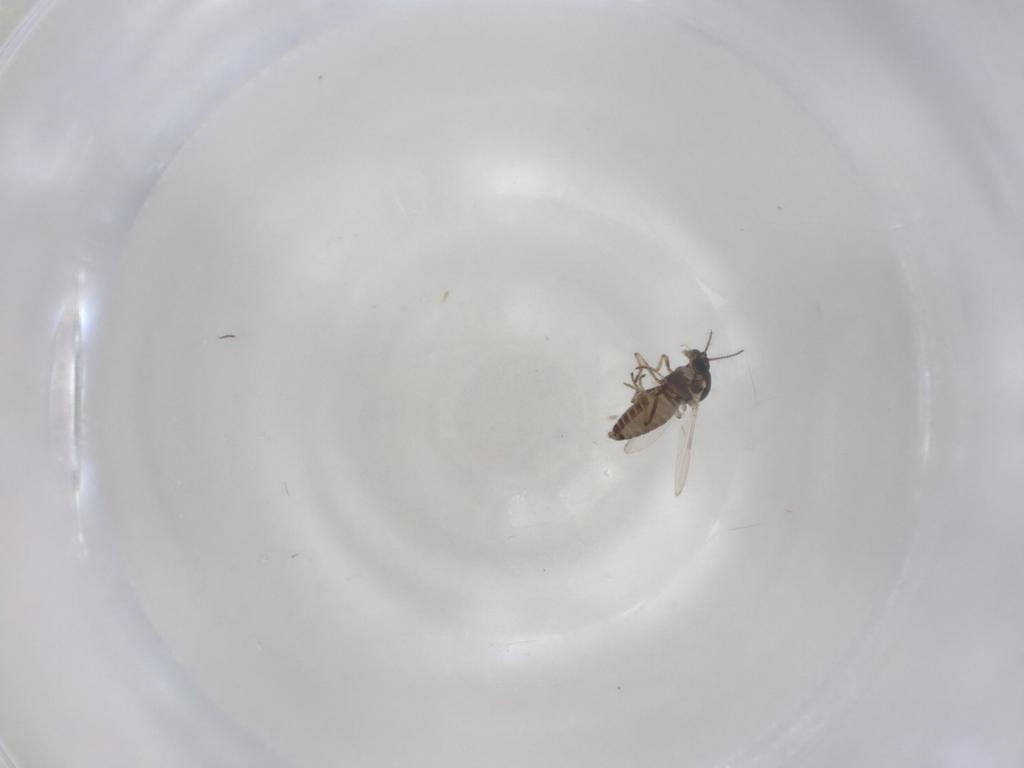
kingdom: Animalia
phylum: Arthropoda
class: Insecta
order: Diptera
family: Ceratopogonidae
